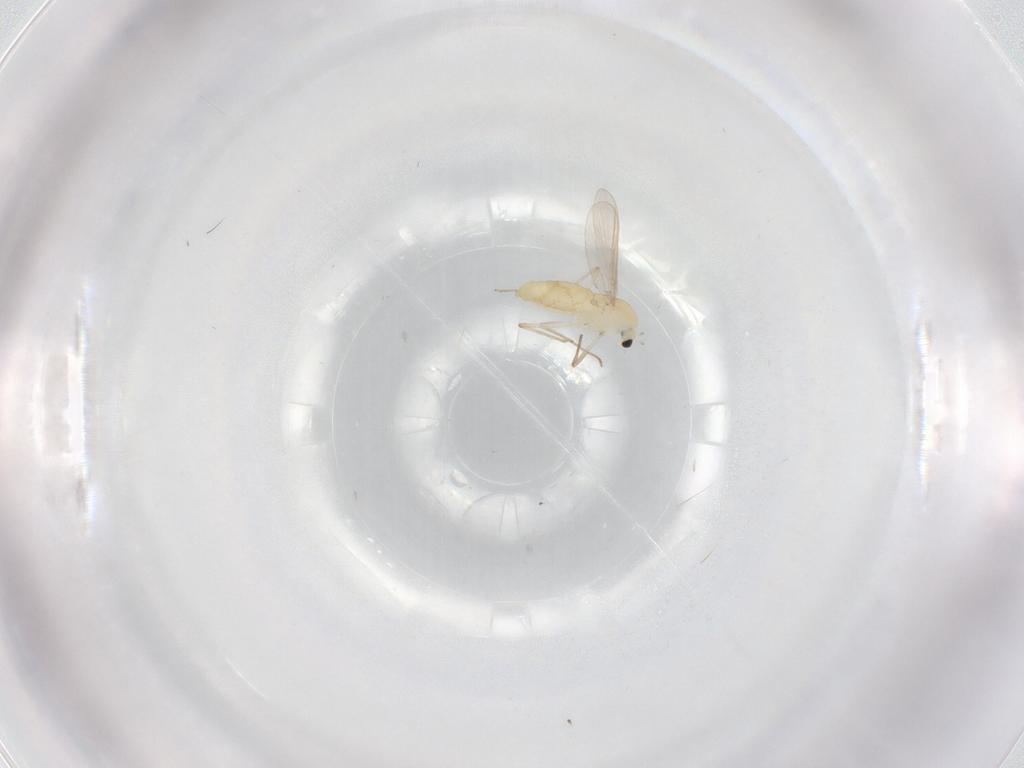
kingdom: Animalia
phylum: Arthropoda
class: Insecta
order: Diptera
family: Chironomidae
